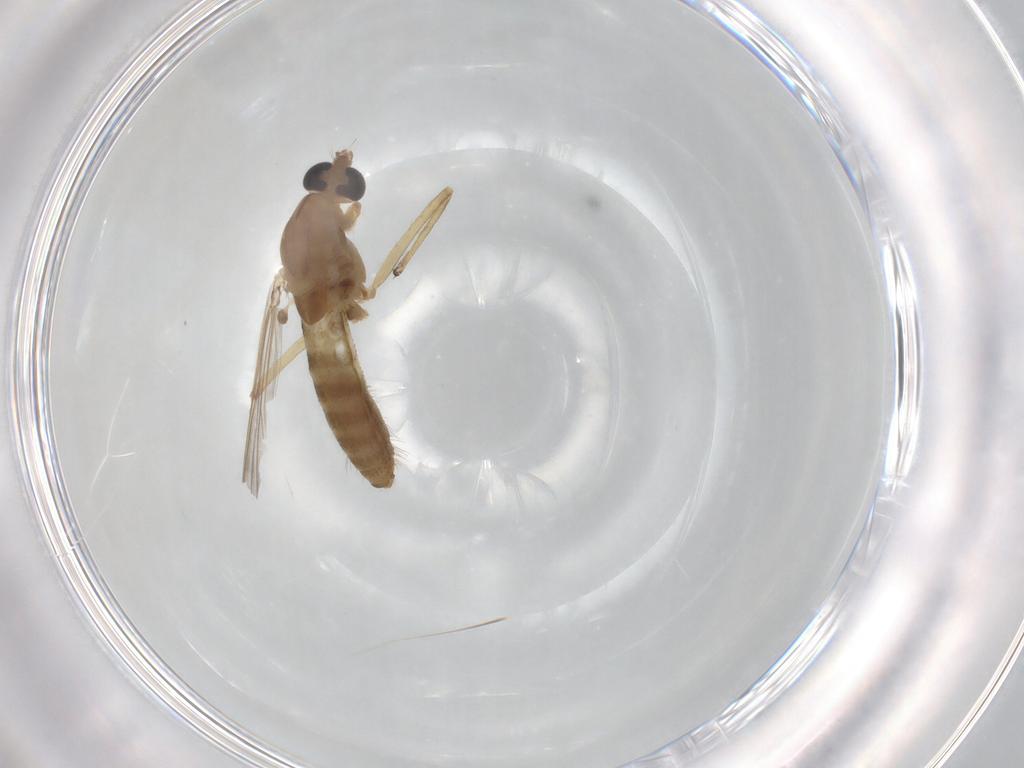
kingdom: Animalia
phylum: Arthropoda
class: Insecta
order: Diptera
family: Chironomidae
